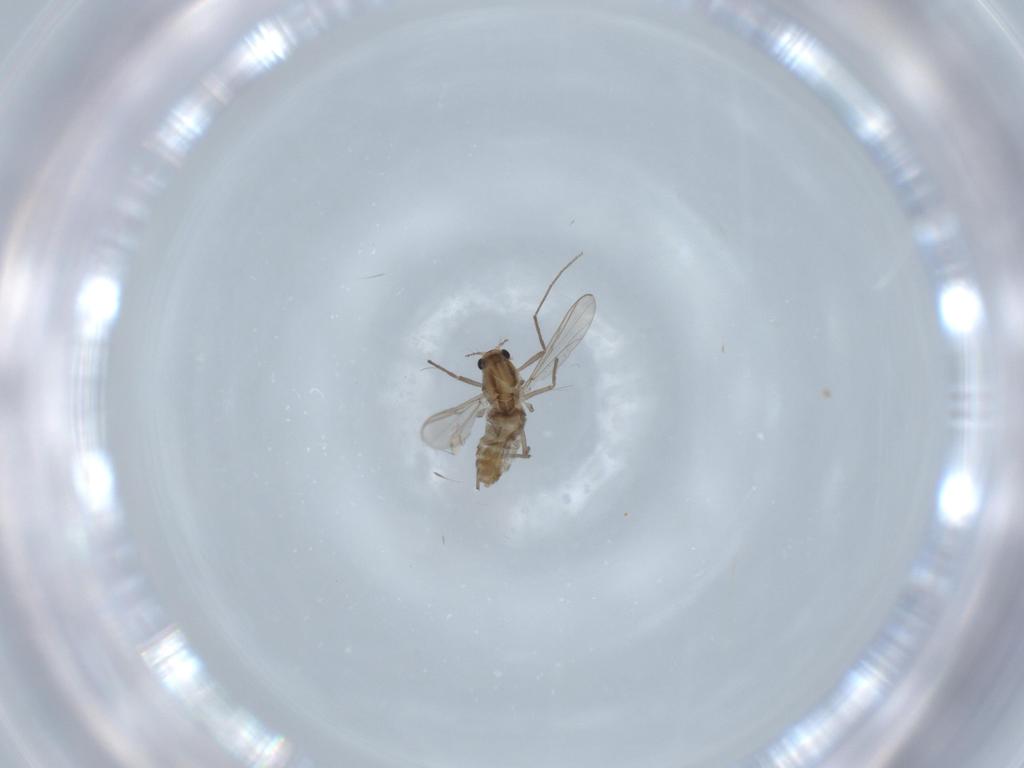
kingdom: Animalia
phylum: Arthropoda
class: Insecta
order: Diptera
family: Chironomidae
